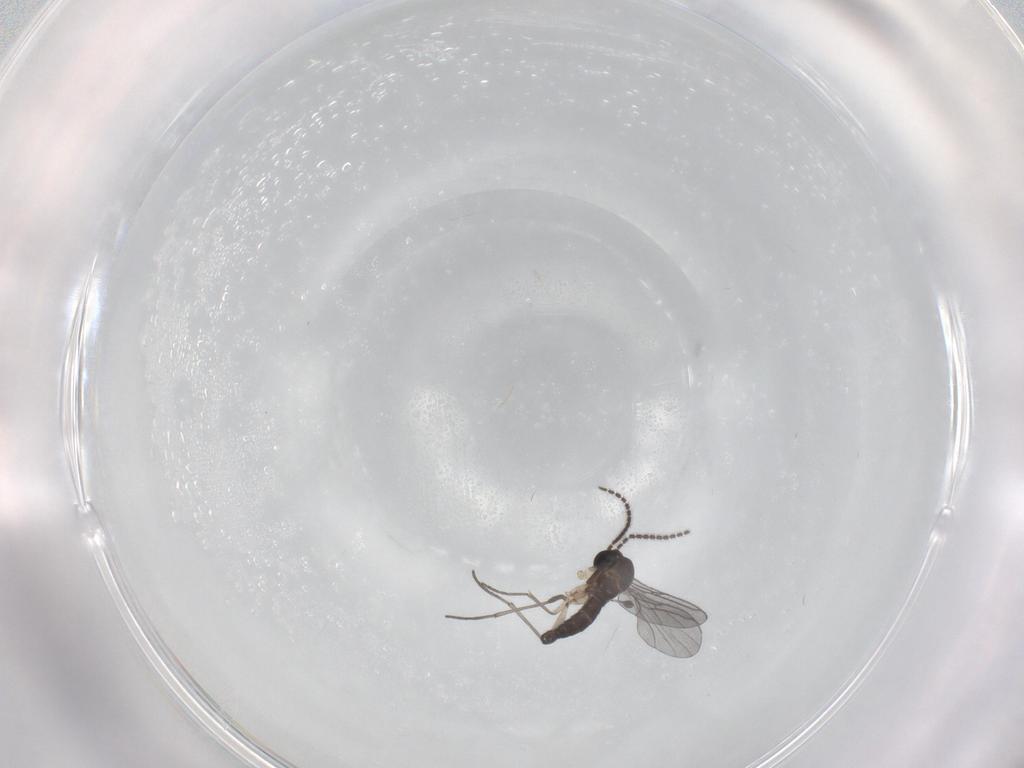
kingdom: Animalia
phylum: Arthropoda
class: Insecta
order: Diptera
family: Sciaridae
